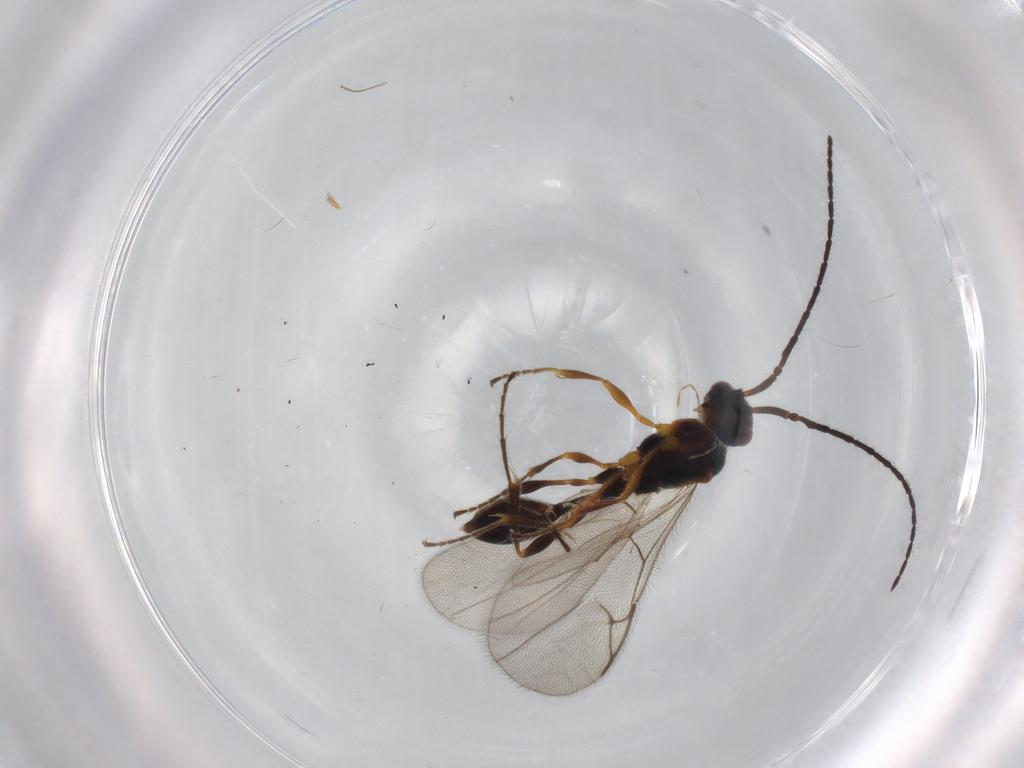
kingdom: Animalia
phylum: Arthropoda
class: Insecta
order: Hymenoptera
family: Diapriidae
